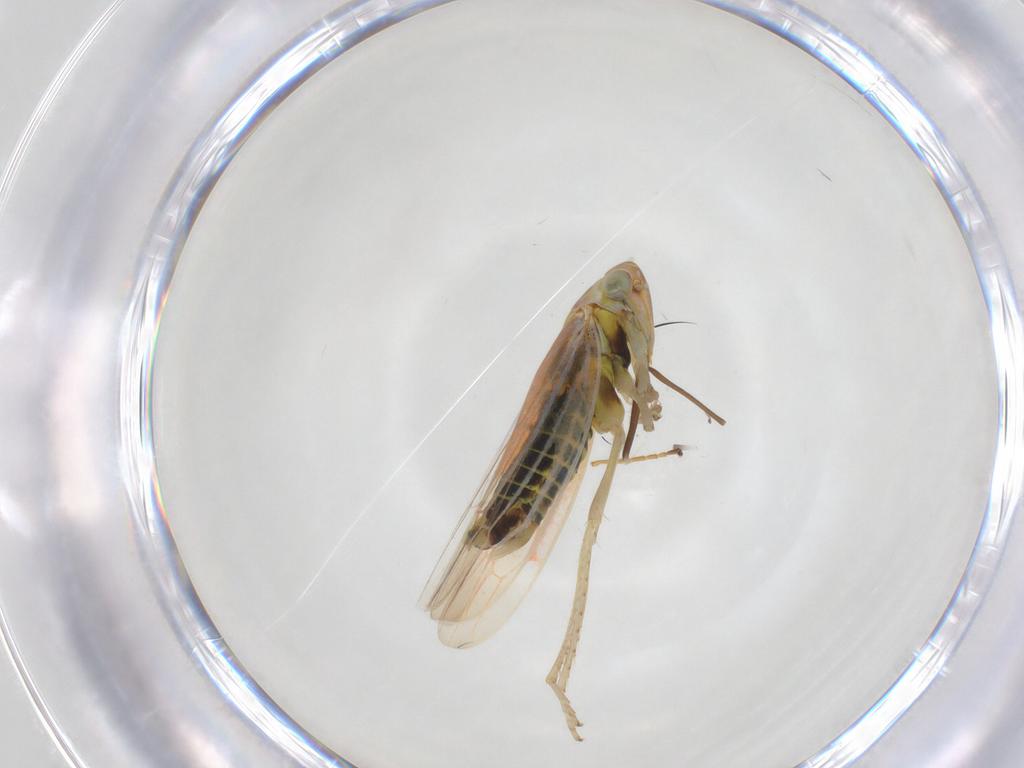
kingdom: Animalia
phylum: Arthropoda
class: Insecta
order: Hemiptera
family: Cicadellidae
